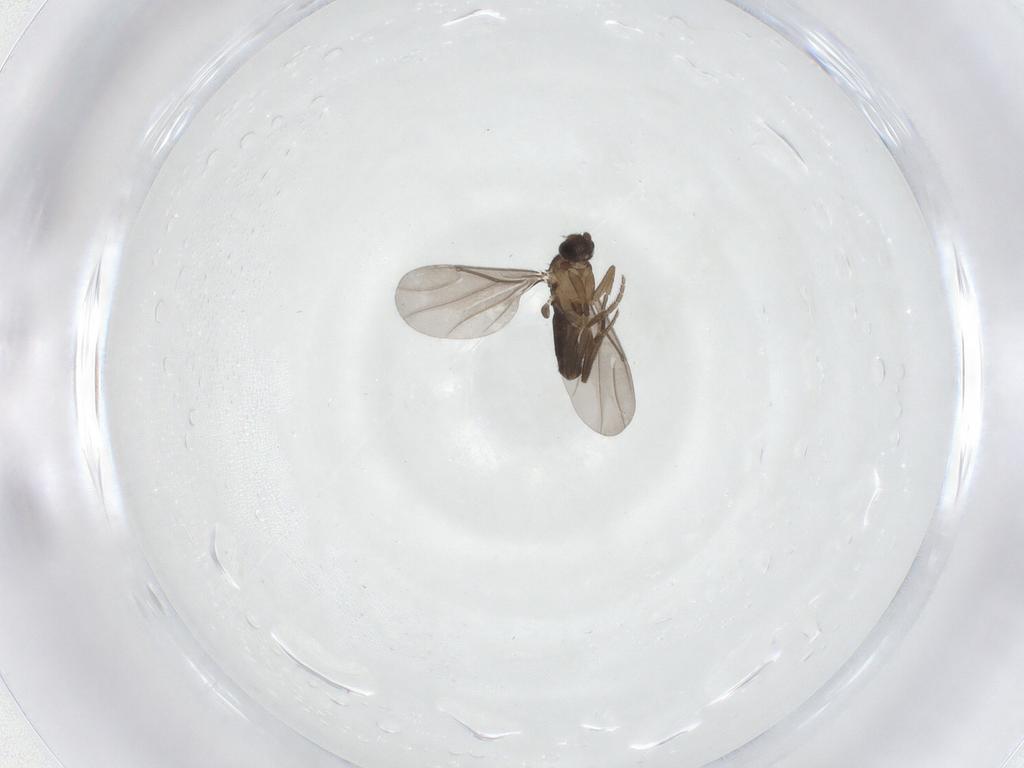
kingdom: Animalia
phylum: Arthropoda
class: Insecta
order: Diptera
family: Phoridae
